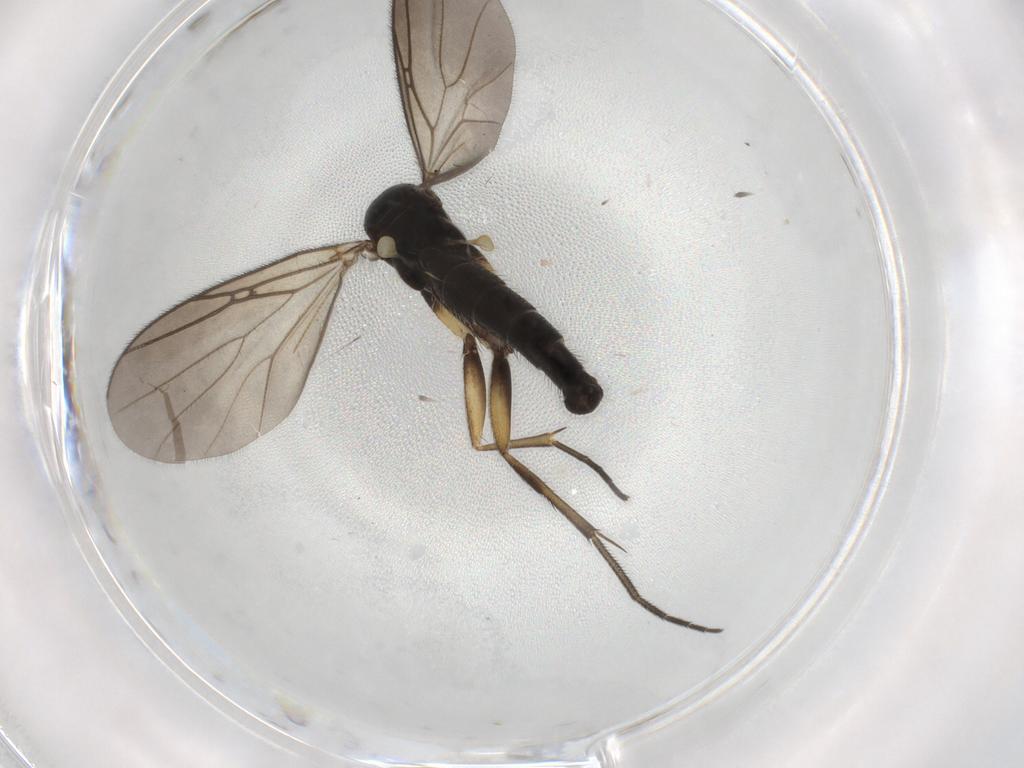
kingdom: Animalia
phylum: Arthropoda
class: Insecta
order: Diptera
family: Mycetophilidae
